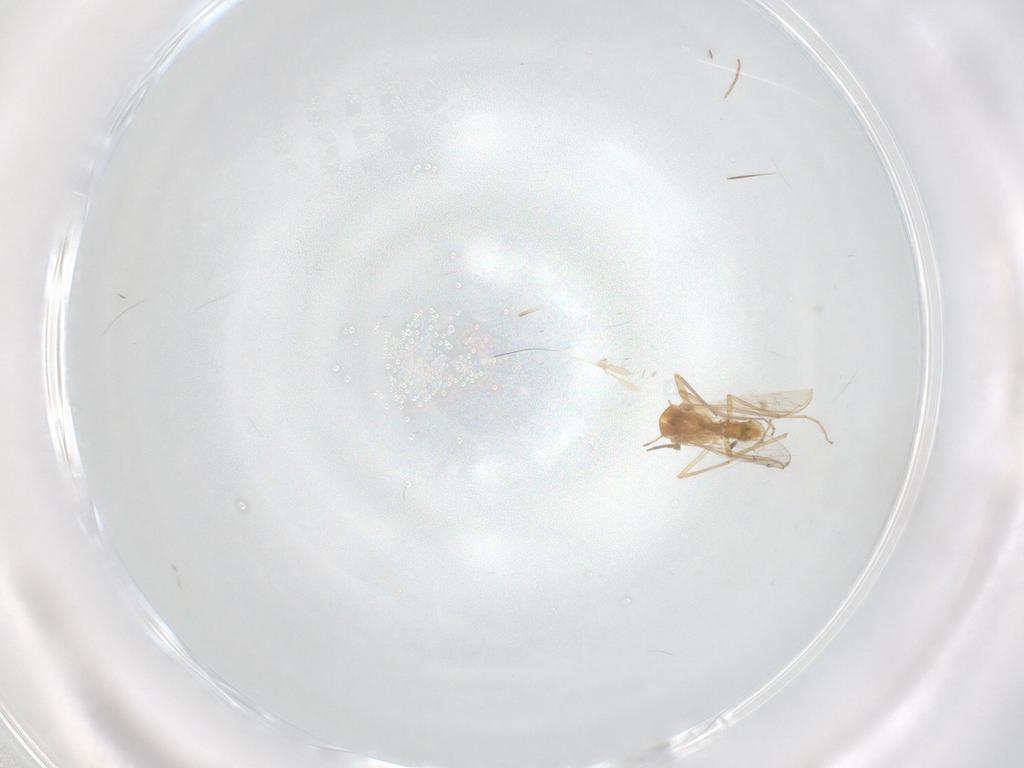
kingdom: Animalia
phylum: Arthropoda
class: Insecta
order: Diptera
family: Chironomidae
